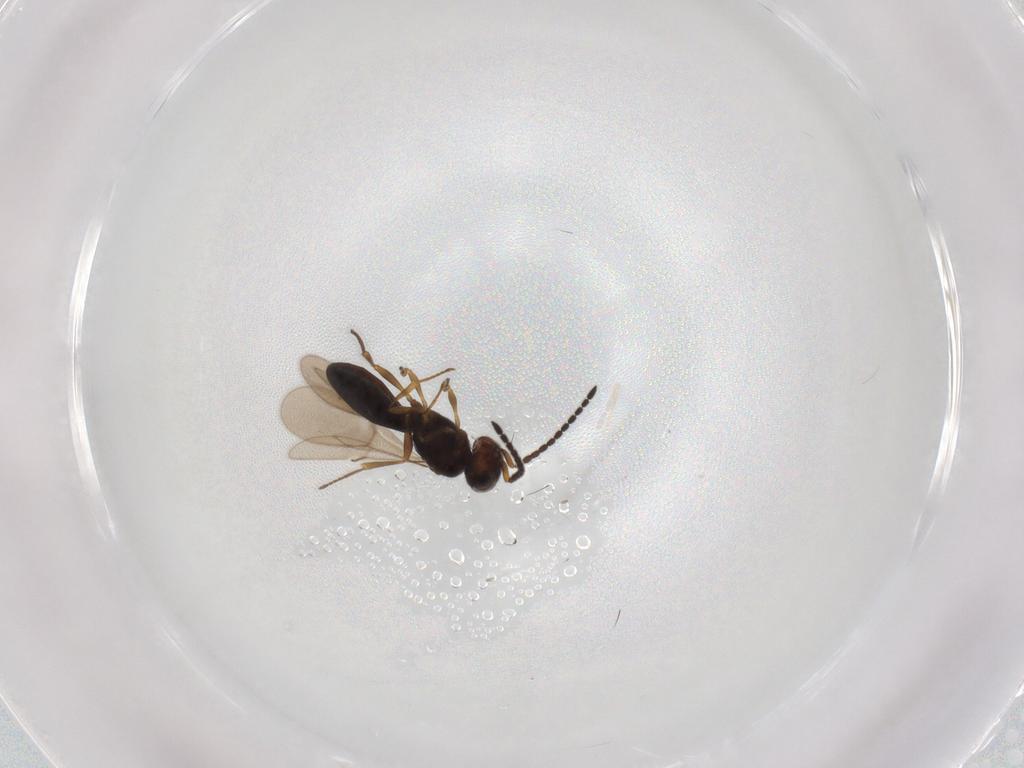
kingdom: Animalia
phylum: Arthropoda
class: Insecta
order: Hymenoptera
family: Scelionidae
